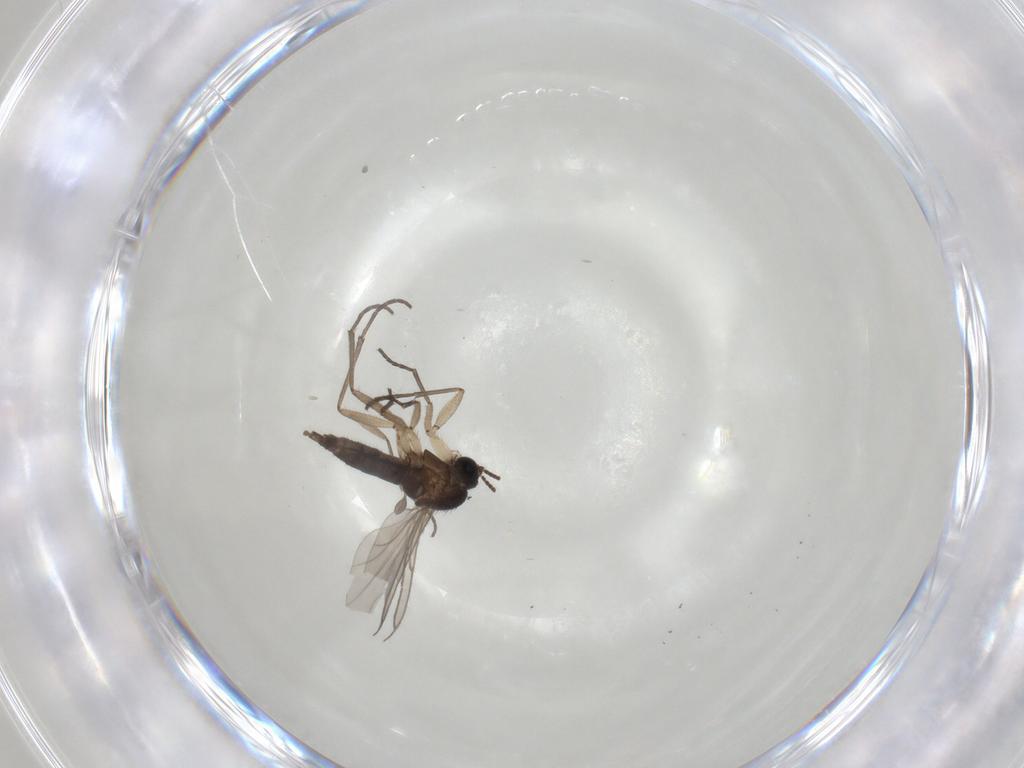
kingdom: Animalia
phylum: Arthropoda
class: Insecta
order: Diptera
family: Sciaridae
